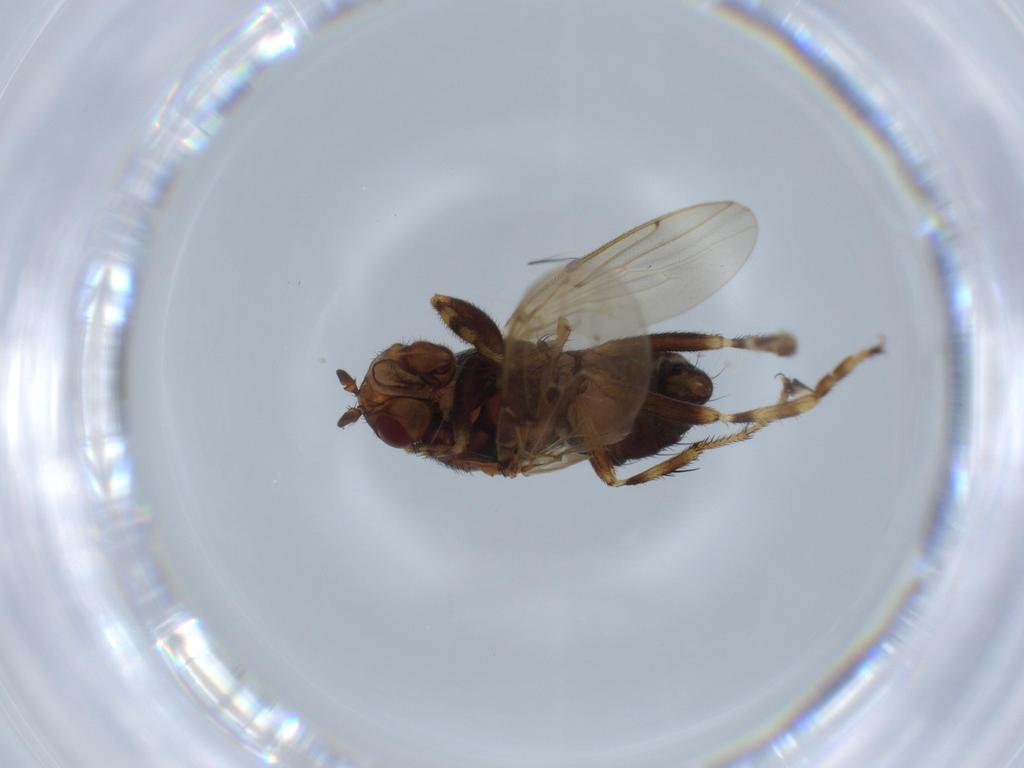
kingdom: Animalia
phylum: Arthropoda
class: Insecta
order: Diptera
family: Sphaeroceridae
